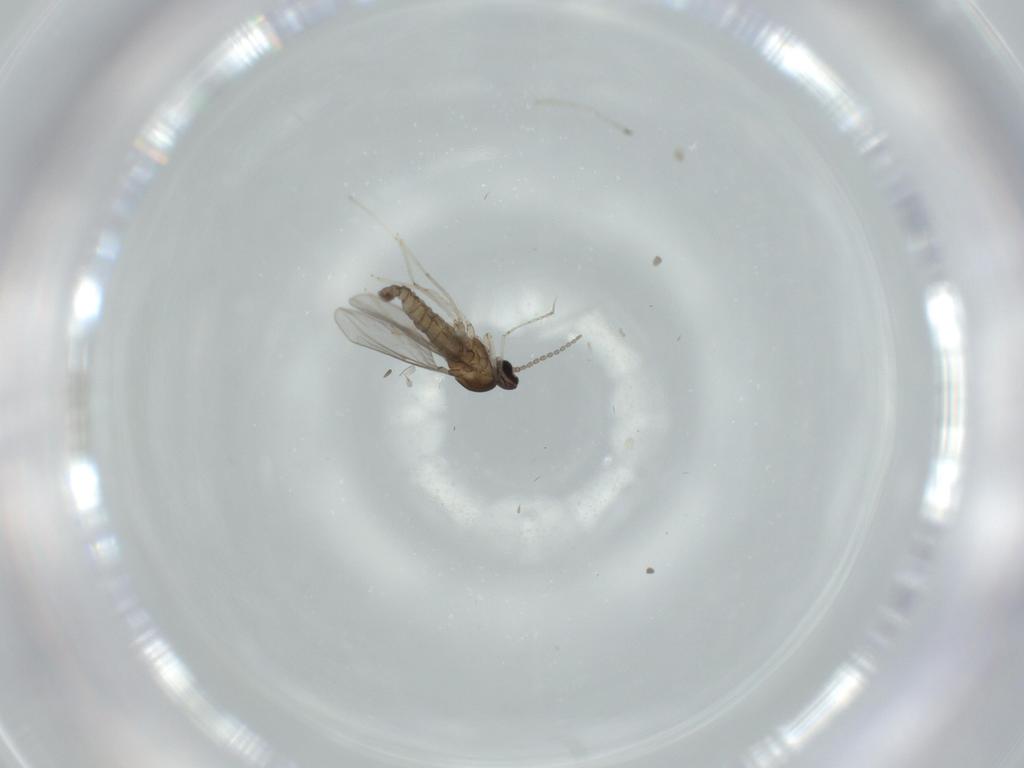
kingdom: Animalia
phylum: Arthropoda
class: Insecta
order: Diptera
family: Cecidomyiidae
